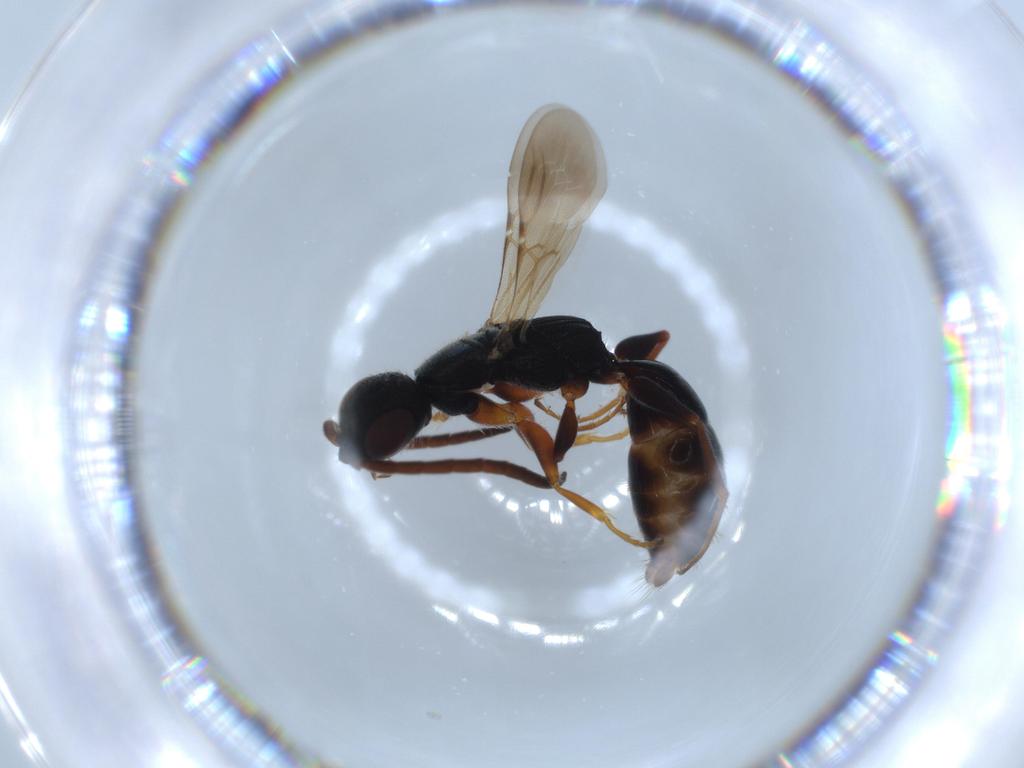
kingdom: Animalia
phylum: Arthropoda
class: Insecta
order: Hymenoptera
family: Bethylidae
